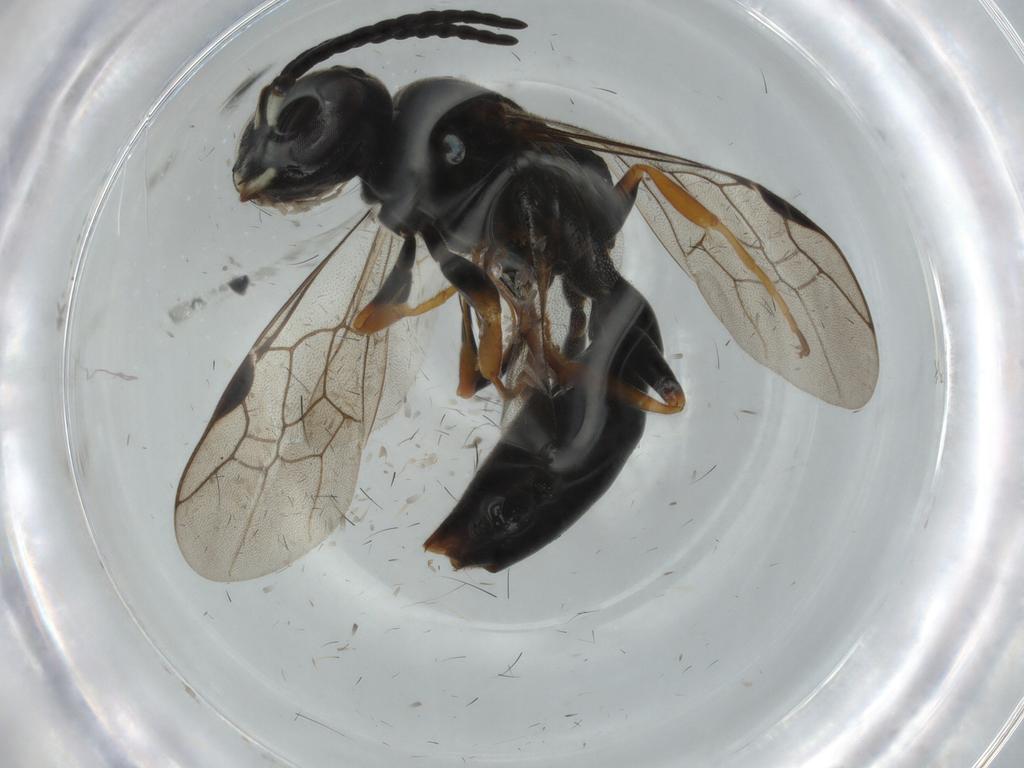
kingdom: Animalia
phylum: Arthropoda
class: Insecta
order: Hymenoptera
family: Crabronidae
